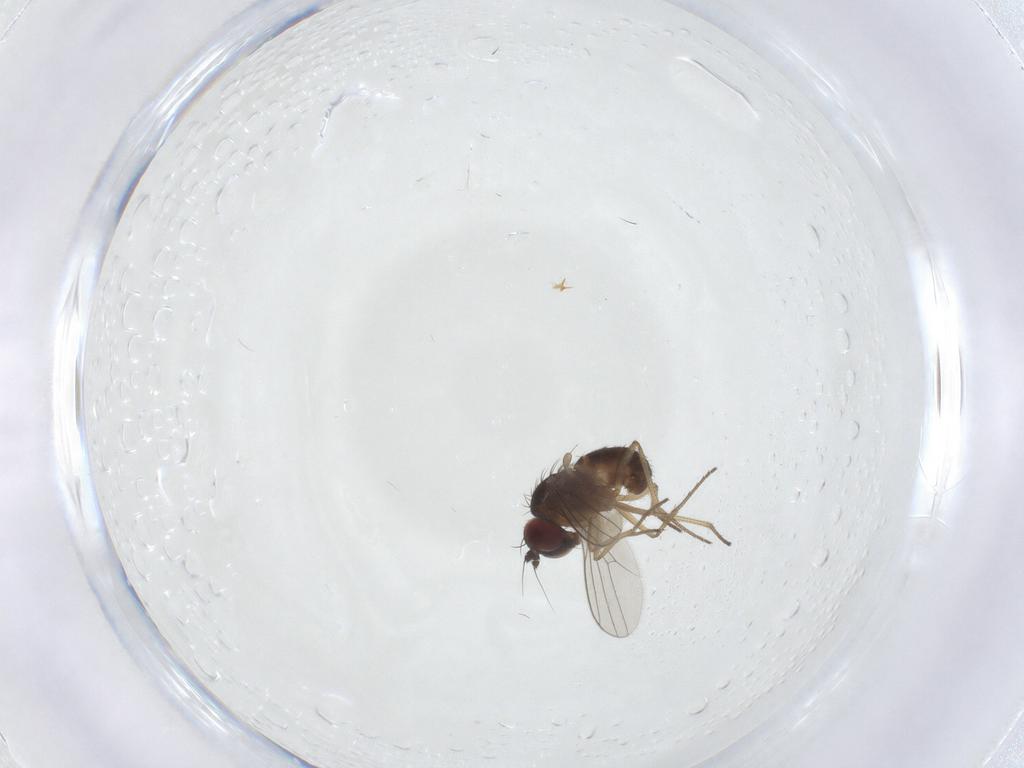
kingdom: Animalia
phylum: Arthropoda
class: Insecta
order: Diptera
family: Dolichopodidae
